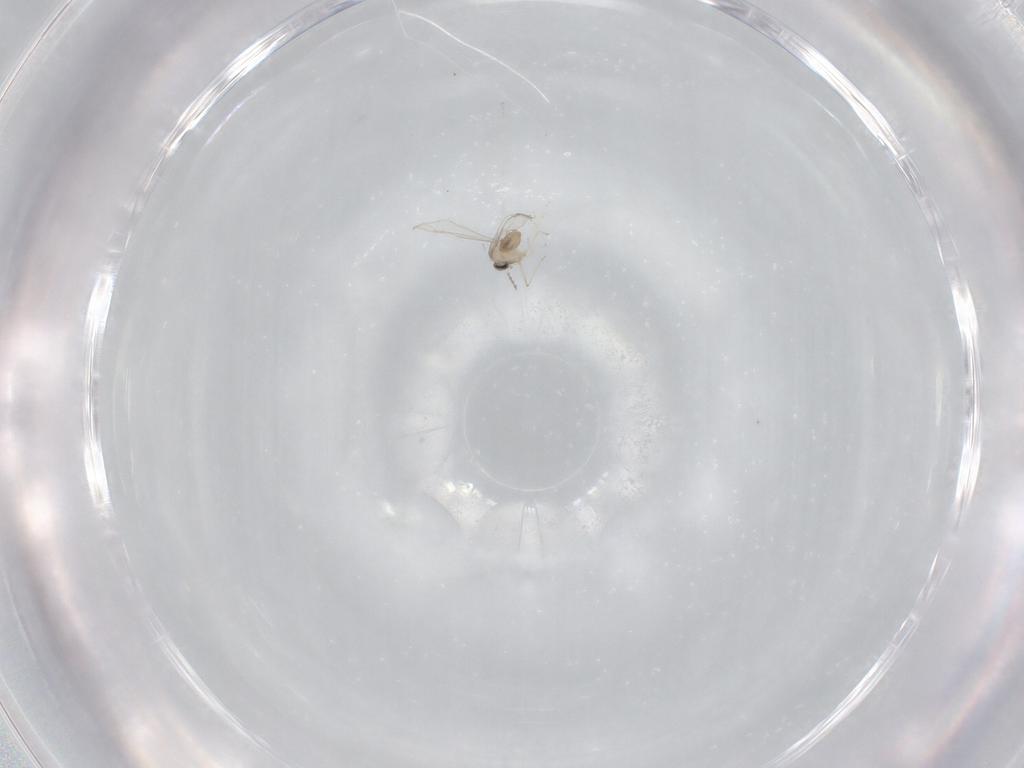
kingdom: Animalia
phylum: Arthropoda
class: Insecta
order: Diptera
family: Cecidomyiidae
